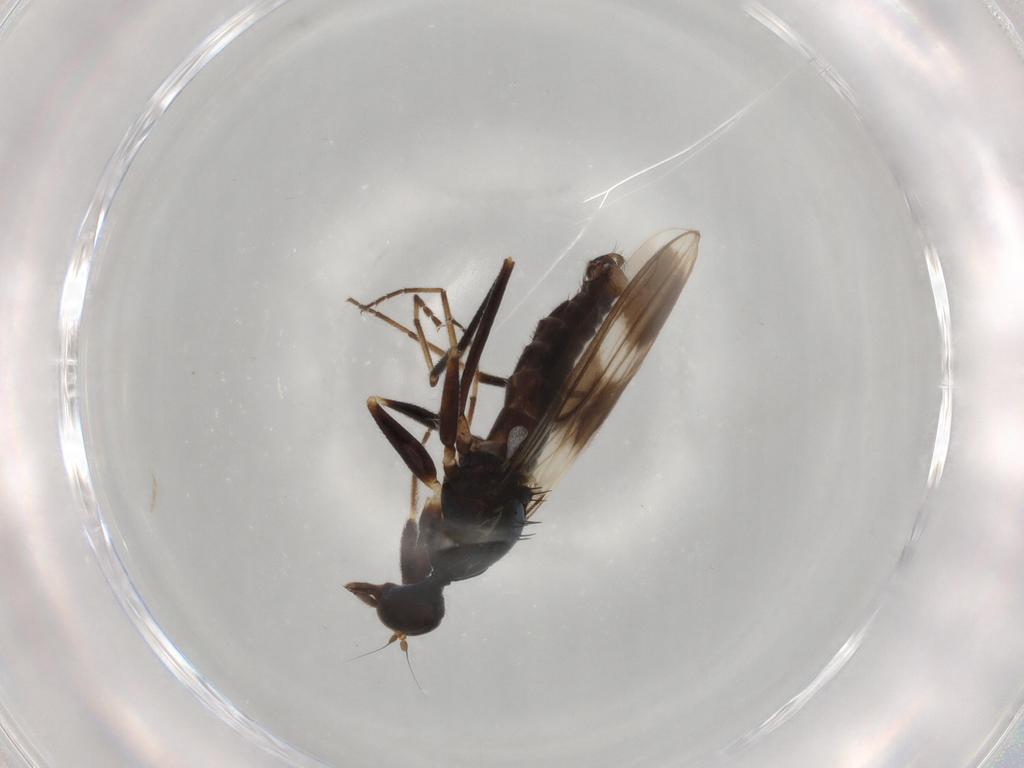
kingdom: Animalia
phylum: Arthropoda
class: Insecta
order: Diptera
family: Hybotidae
